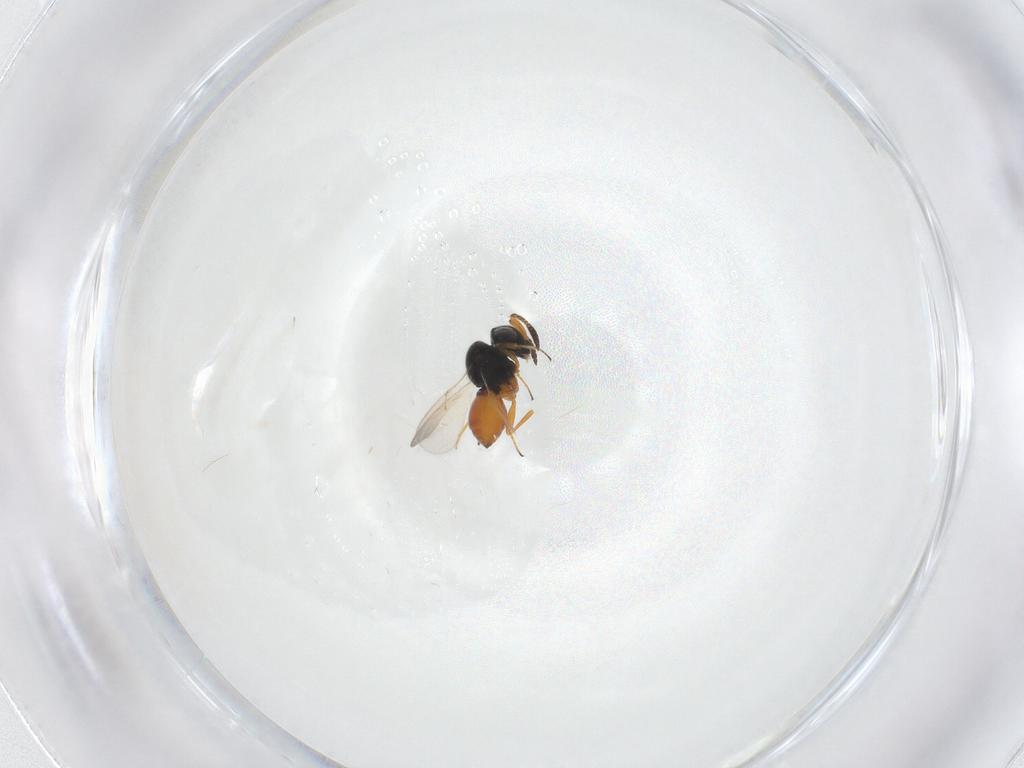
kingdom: Animalia
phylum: Arthropoda
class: Insecta
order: Hymenoptera
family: Scelionidae
